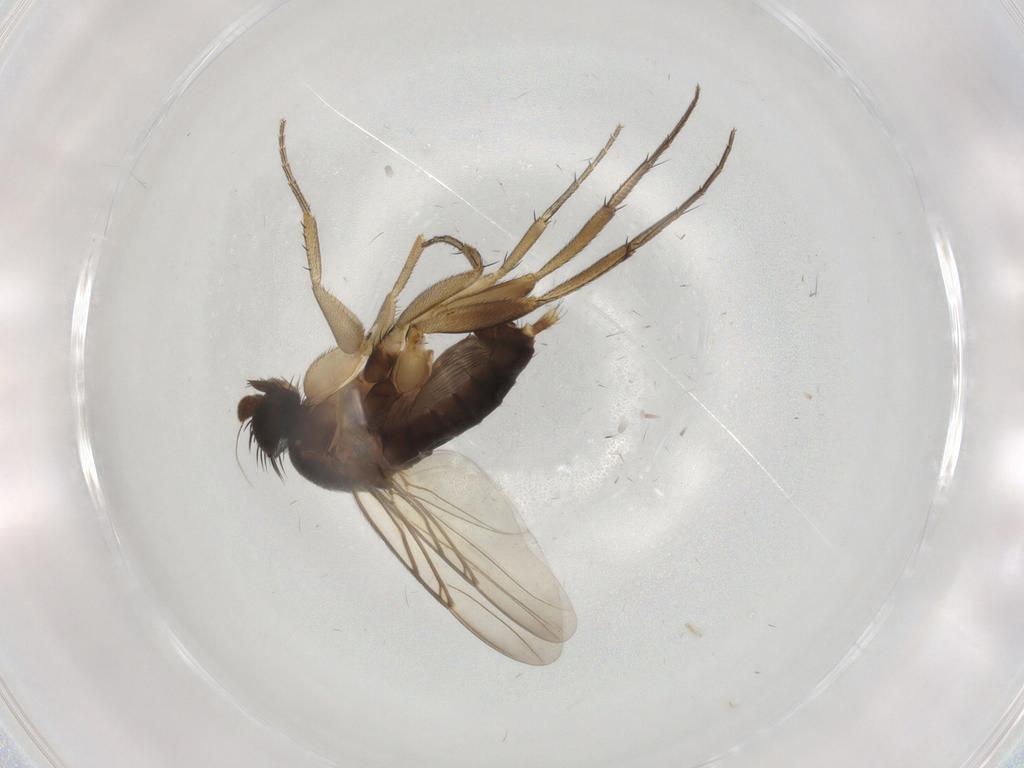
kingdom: Animalia
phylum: Arthropoda
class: Insecta
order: Diptera
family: Phoridae
